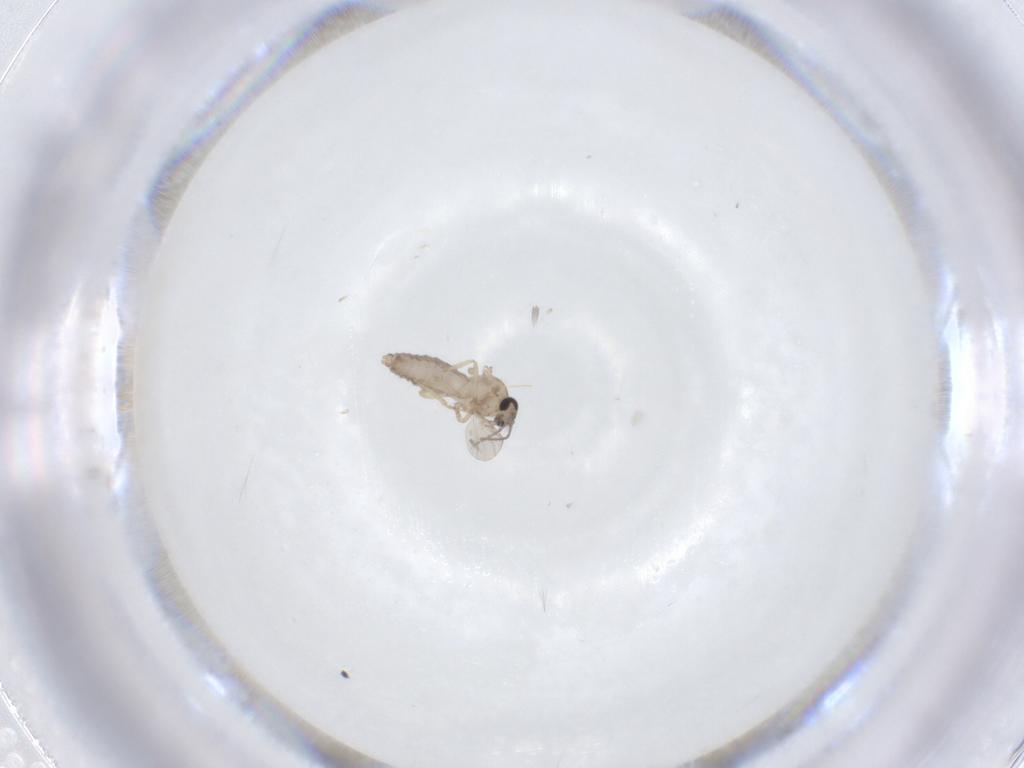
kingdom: Animalia
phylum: Arthropoda
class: Insecta
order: Diptera
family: Ceratopogonidae
